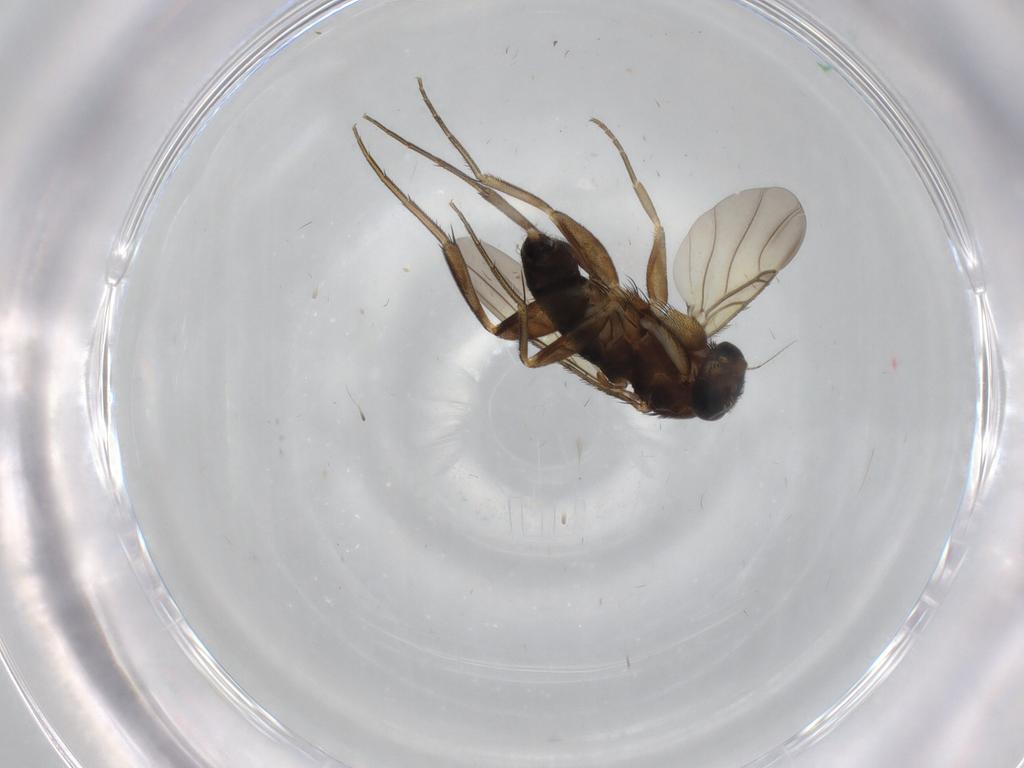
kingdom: Animalia
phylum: Arthropoda
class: Insecta
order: Diptera
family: Phoridae
